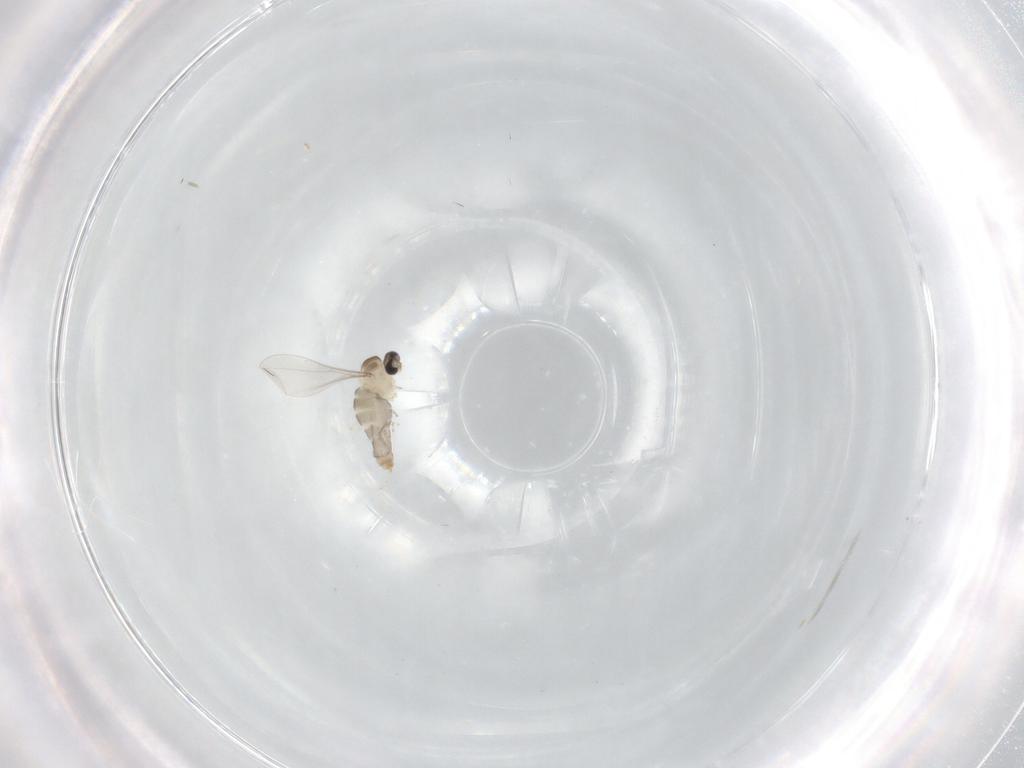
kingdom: Animalia
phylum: Arthropoda
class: Insecta
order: Diptera
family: Cecidomyiidae
